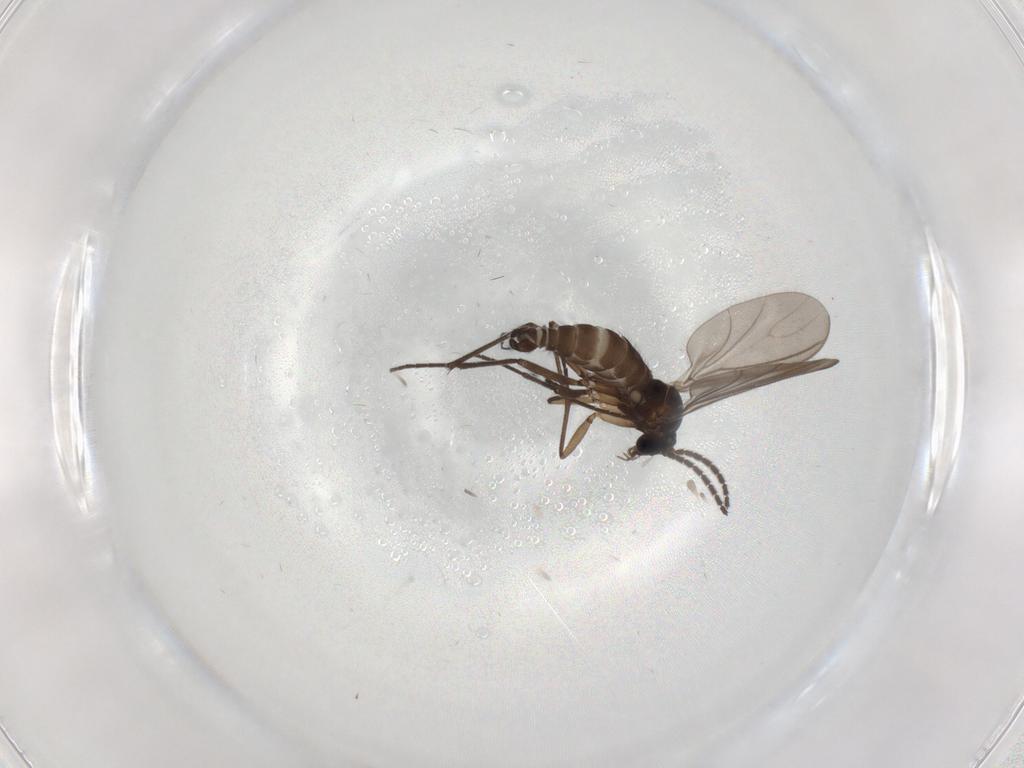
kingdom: Animalia
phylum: Arthropoda
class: Insecta
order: Diptera
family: Sciaridae
